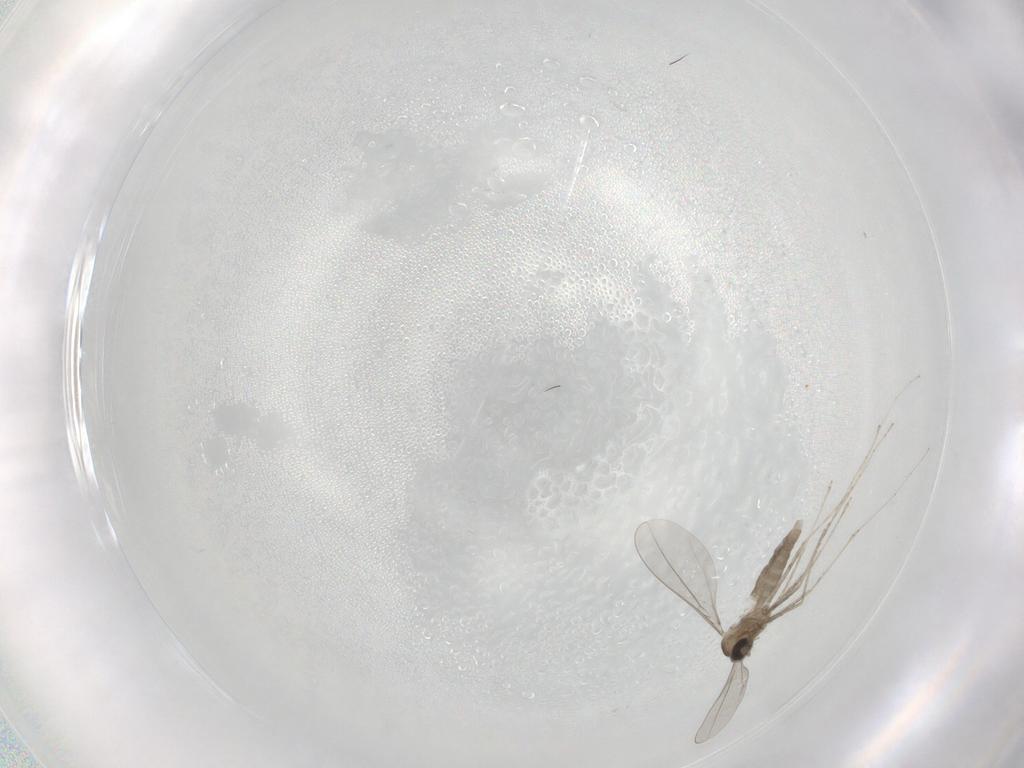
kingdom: Animalia
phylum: Arthropoda
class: Insecta
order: Diptera
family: Cecidomyiidae
